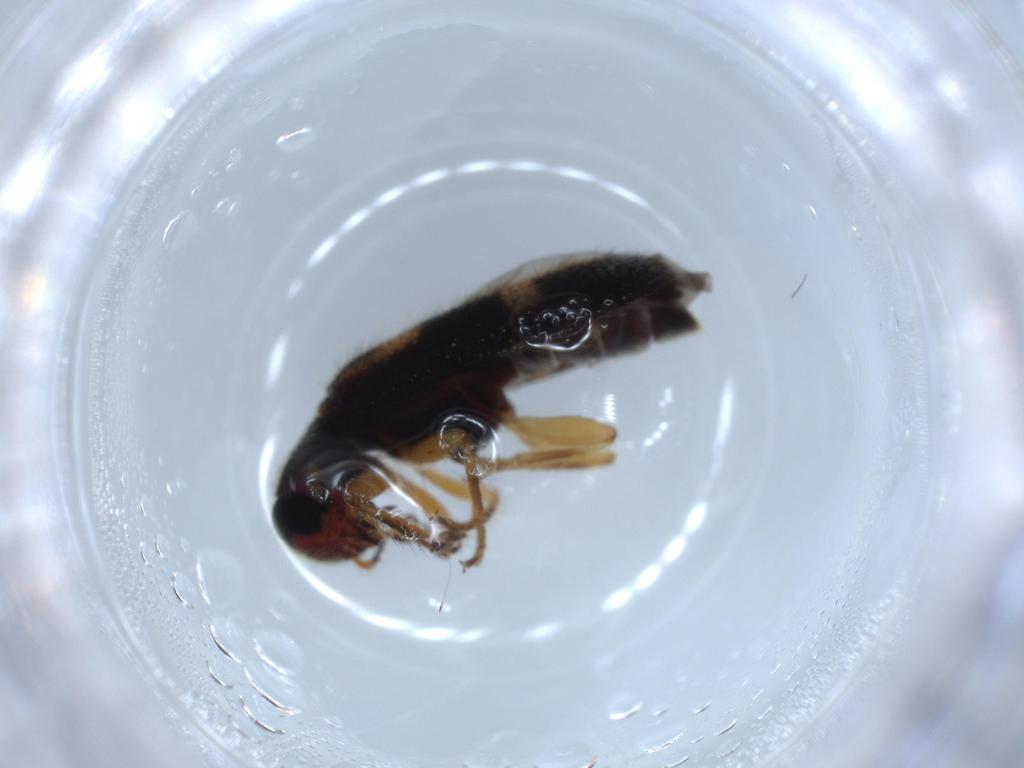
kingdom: Animalia
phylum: Arthropoda
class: Insecta
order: Coleoptera
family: Cleridae
